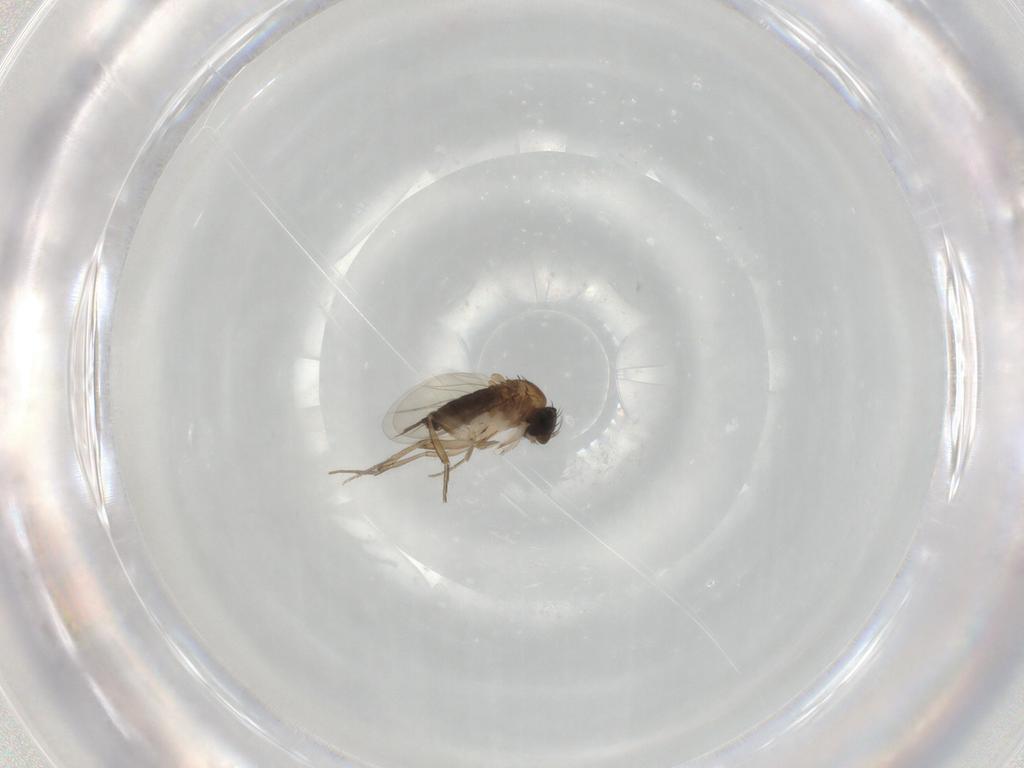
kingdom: Animalia
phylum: Arthropoda
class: Insecta
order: Diptera
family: Phoridae
